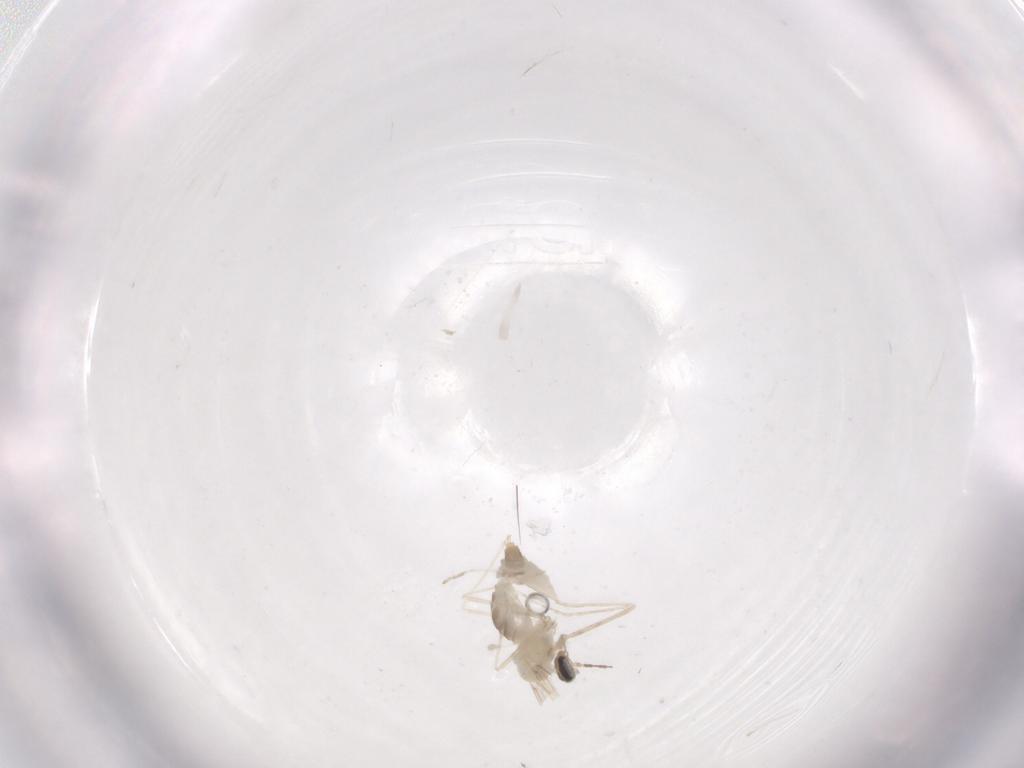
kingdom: Animalia
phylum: Arthropoda
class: Insecta
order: Diptera
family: Cecidomyiidae
